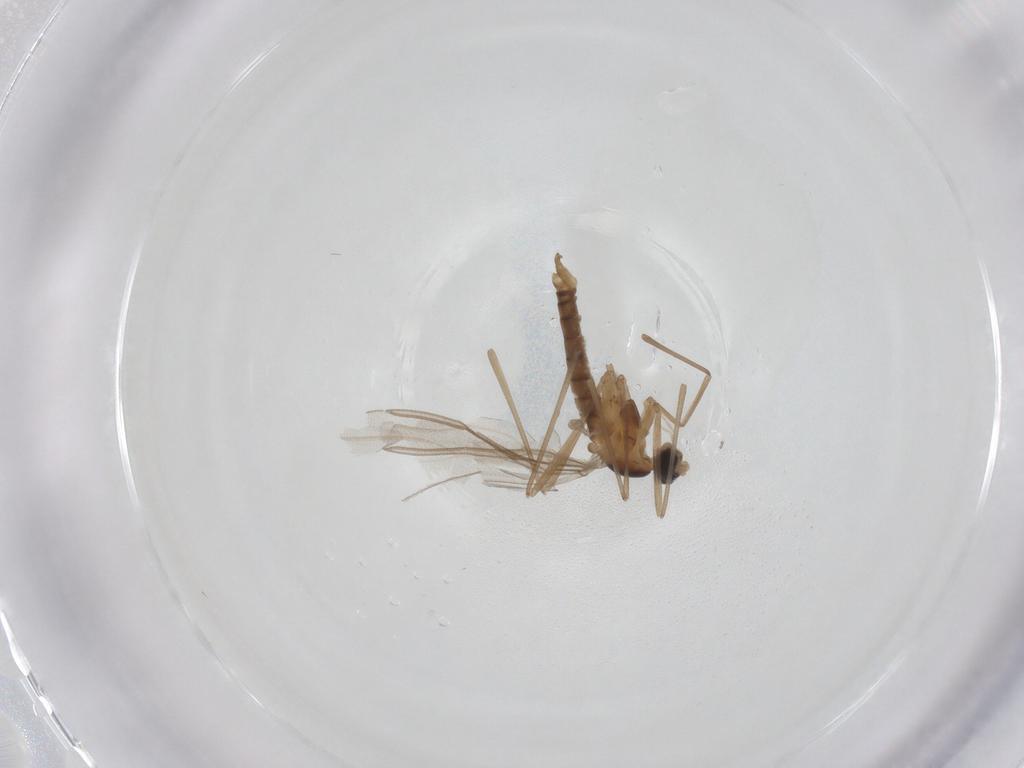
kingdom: Animalia
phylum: Arthropoda
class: Insecta
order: Diptera
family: Cecidomyiidae
